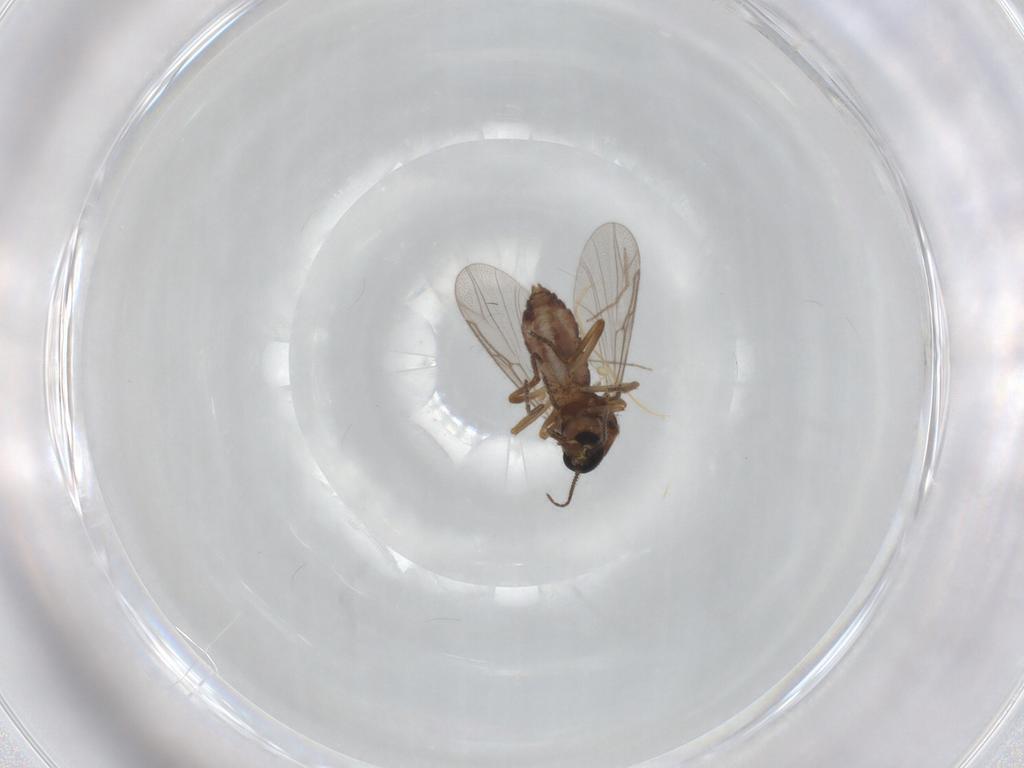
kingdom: Animalia
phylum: Arthropoda
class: Insecta
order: Diptera
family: Ceratopogonidae
